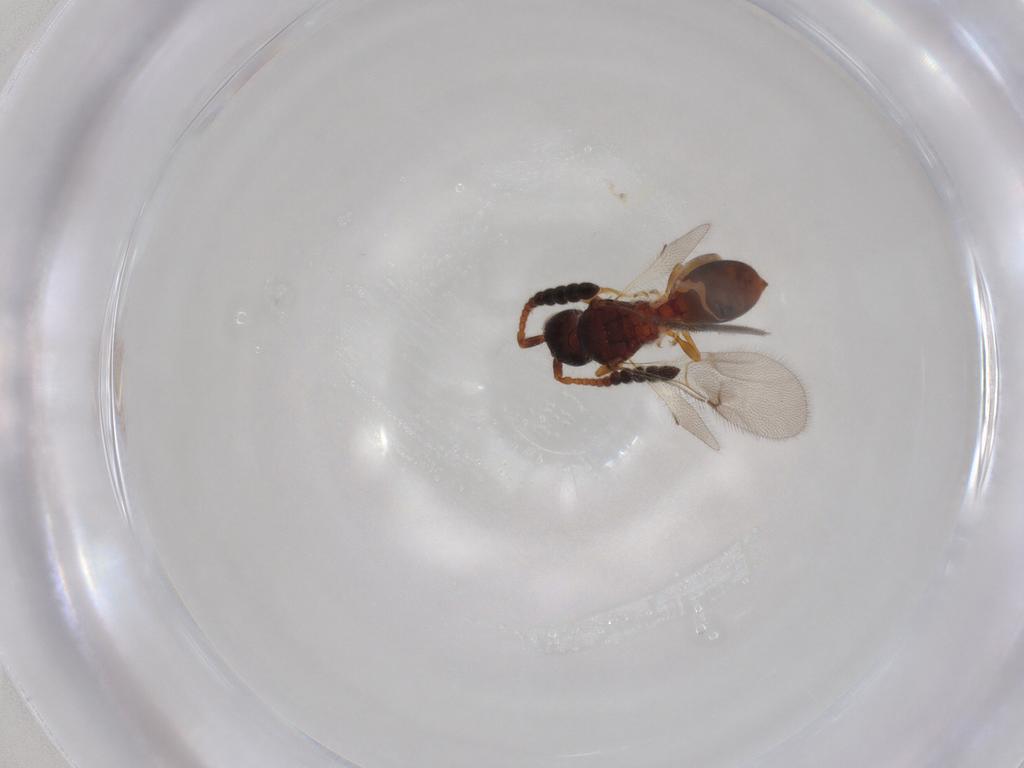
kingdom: Animalia
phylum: Arthropoda
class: Insecta
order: Hymenoptera
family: Diapriidae
